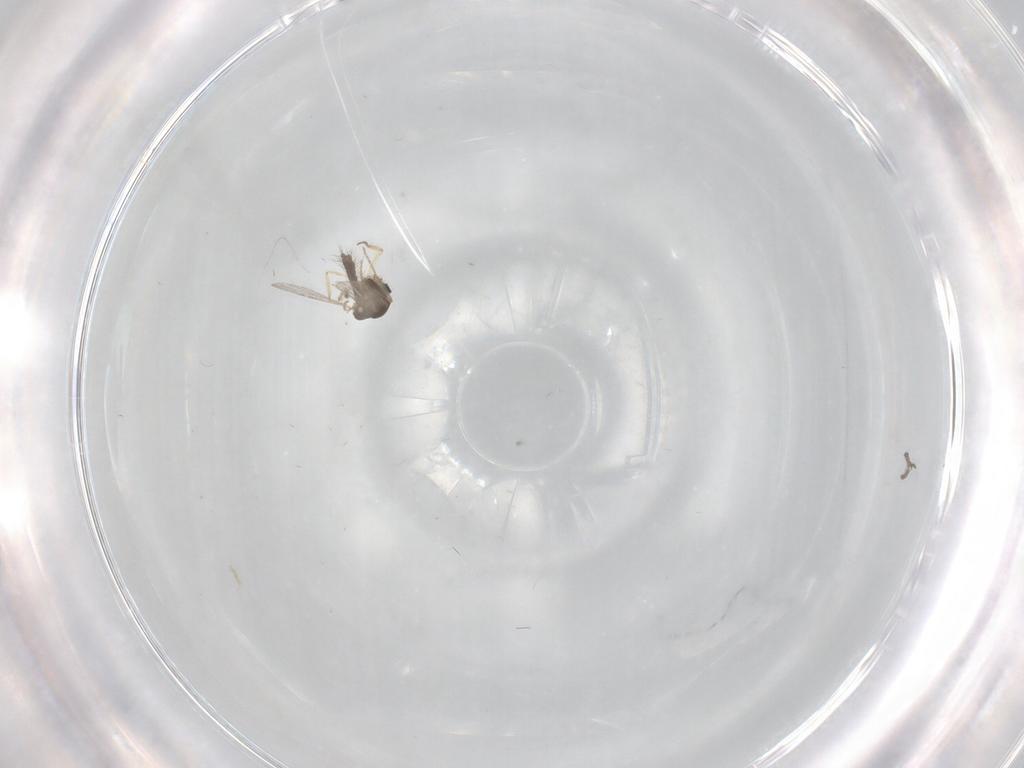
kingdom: Animalia
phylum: Arthropoda
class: Insecta
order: Diptera
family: Ceratopogonidae
